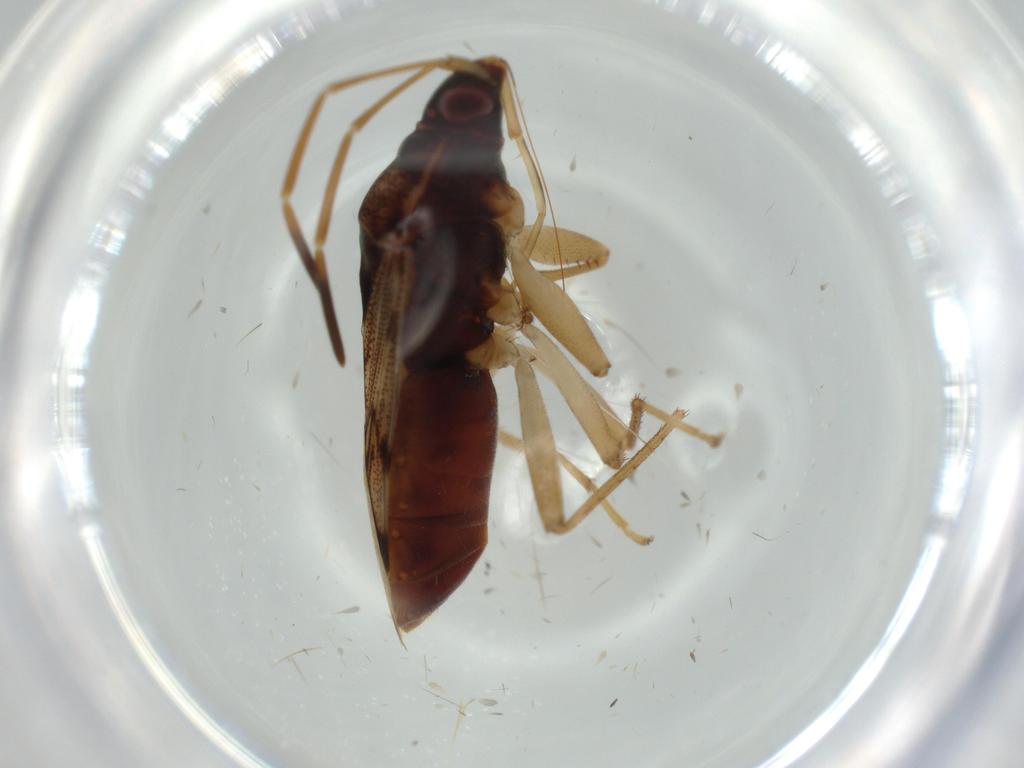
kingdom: Animalia
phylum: Arthropoda
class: Insecta
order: Hemiptera
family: Rhyparochromidae
